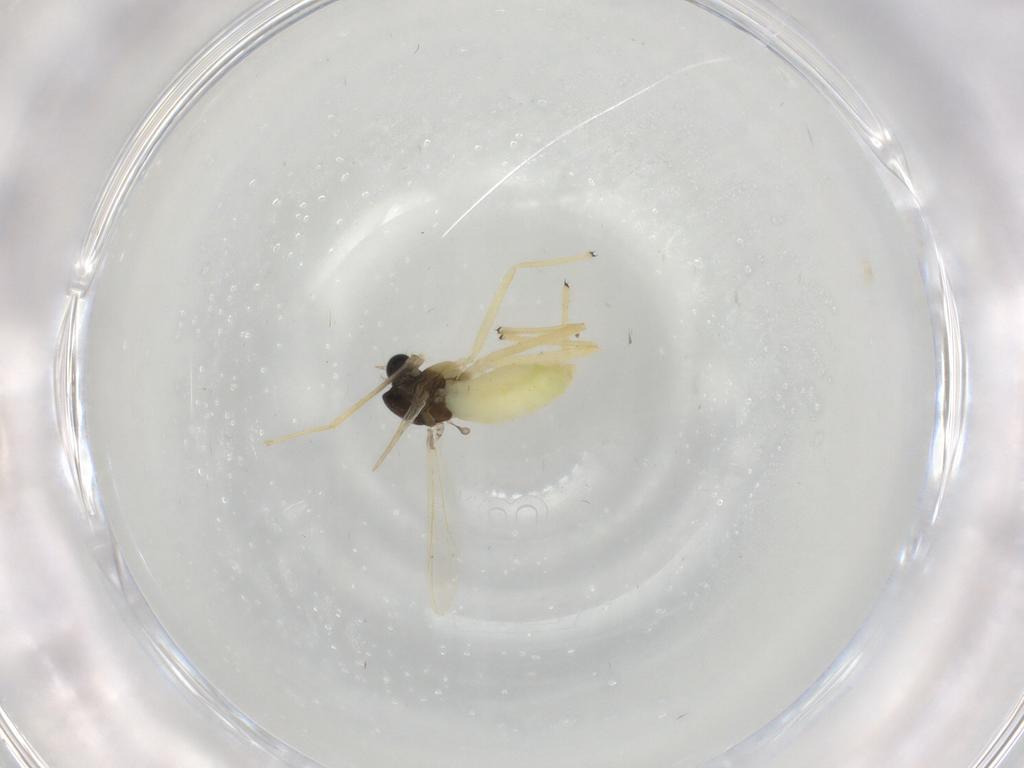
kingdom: Animalia
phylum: Arthropoda
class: Insecta
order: Diptera
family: Chironomidae
